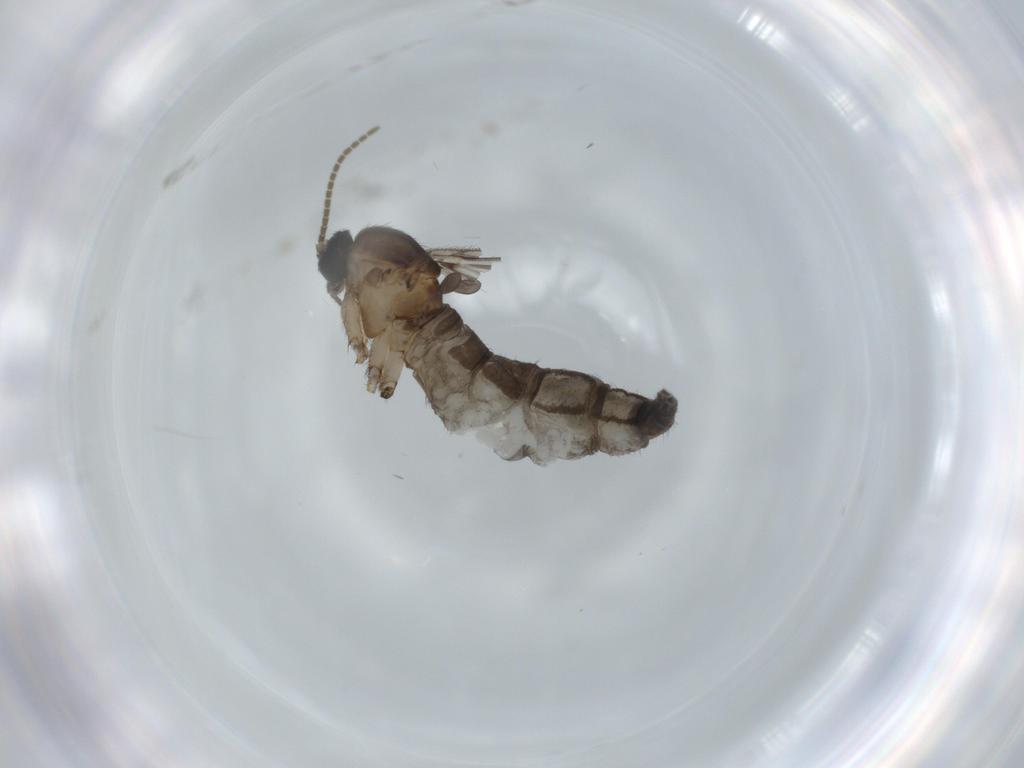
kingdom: Animalia
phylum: Arthropoda
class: Insecta
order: Diptera
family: Sciaridae
